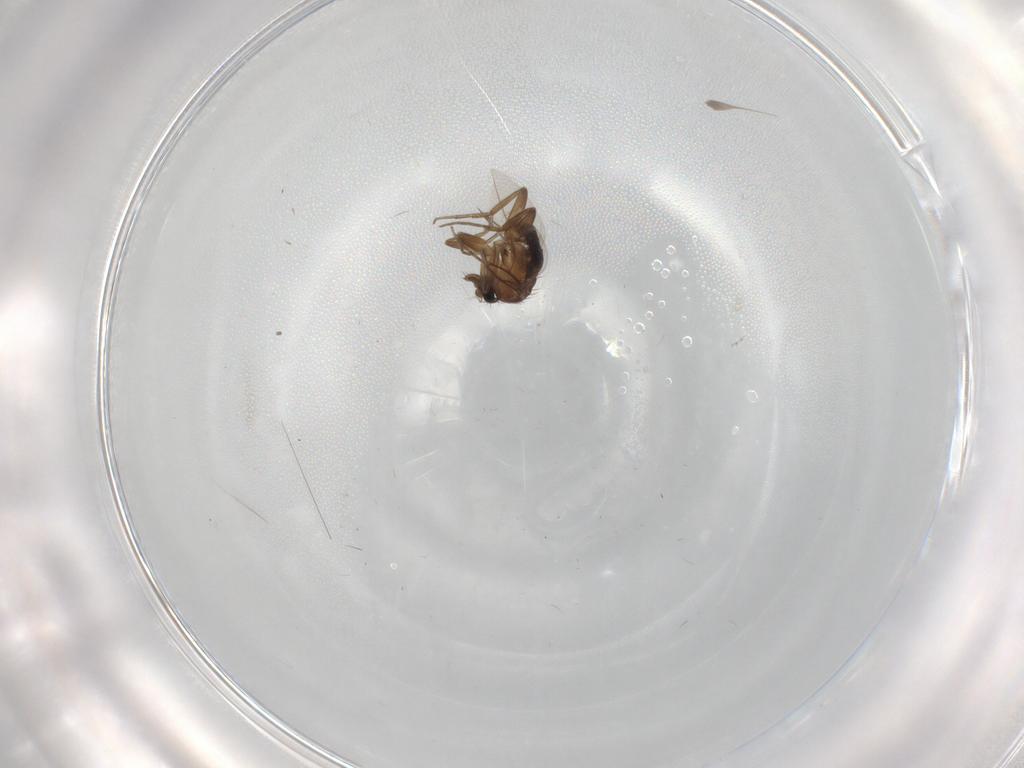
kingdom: Animalia
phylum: Arthropoda
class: Insecta
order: Diptera
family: Phoridae
